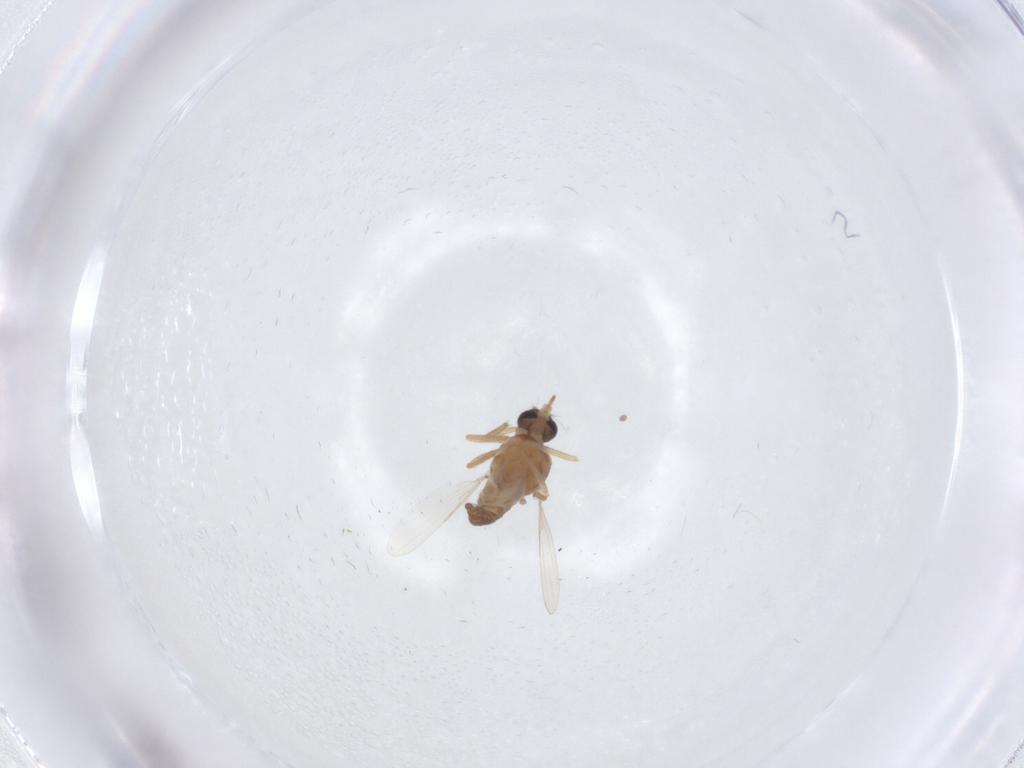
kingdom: Animalia
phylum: Arthropoda
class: Insecta
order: Diptera
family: Ceratopogonidae
